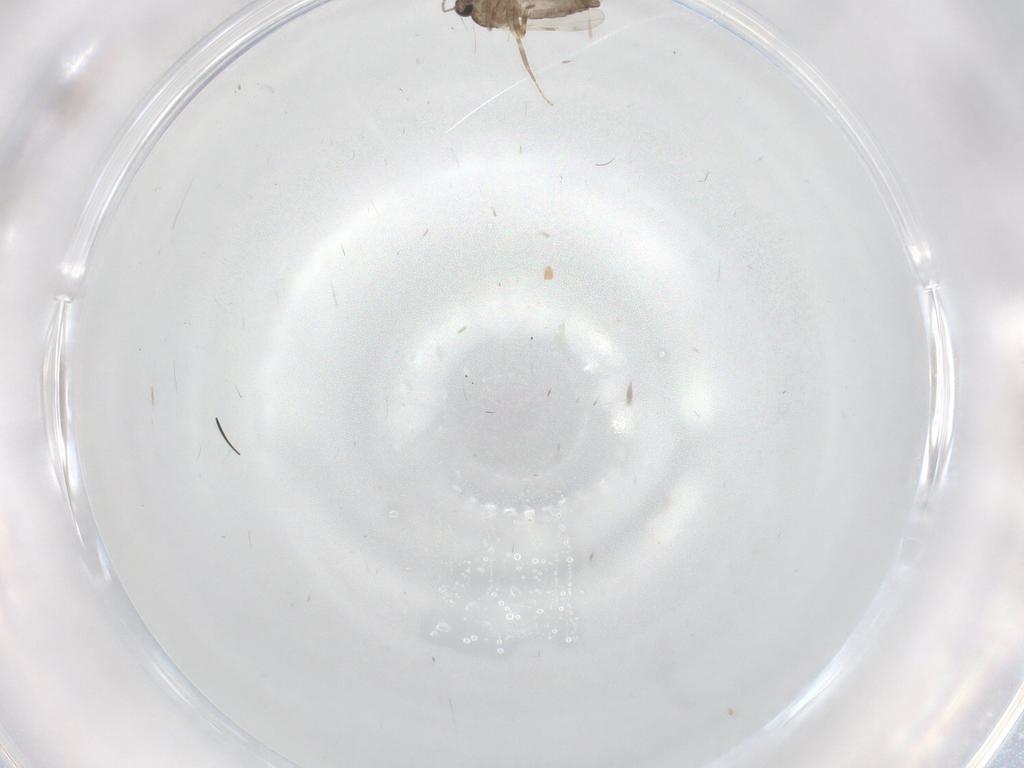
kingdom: Animalia
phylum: Arthropoda
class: Insecta
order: Diptera
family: Ceratopogonidae
